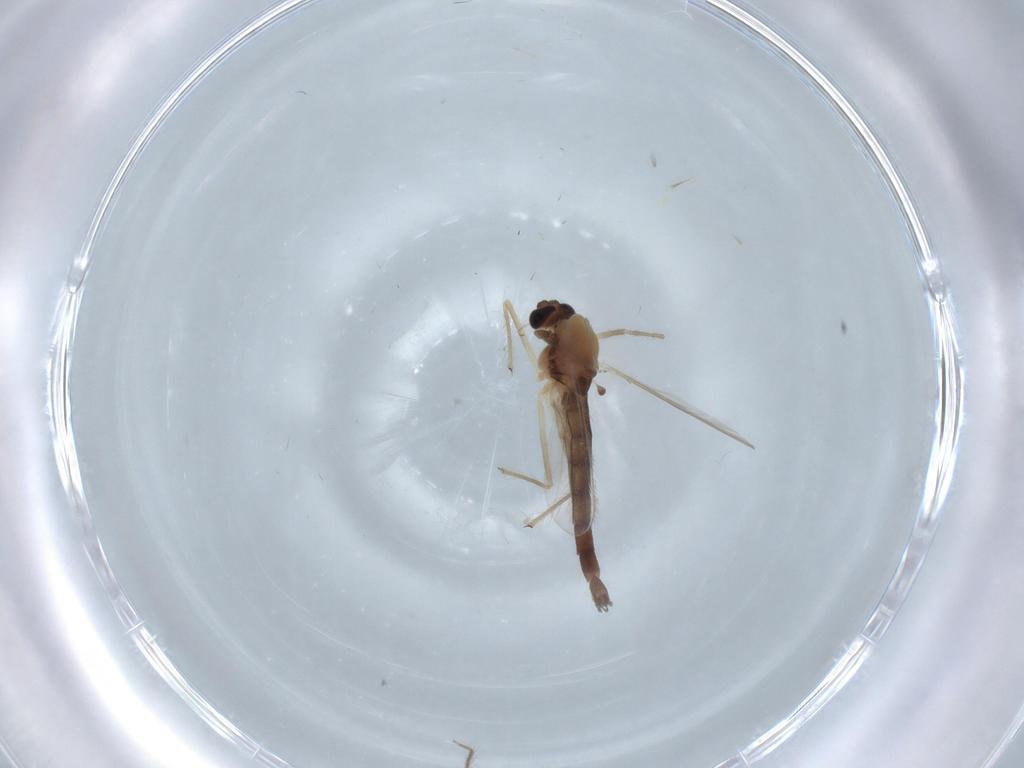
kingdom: Animalia
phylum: Arthropoda
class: Insecta
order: Diptera
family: Chironomidae
